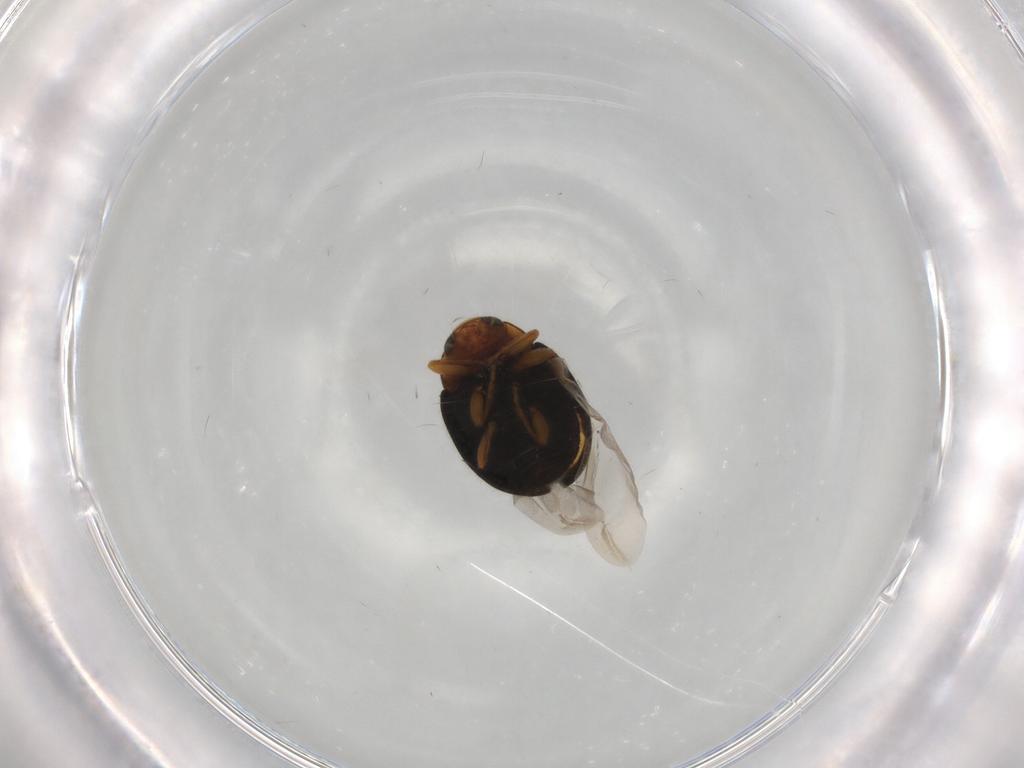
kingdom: Animalia
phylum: Arthropoda
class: Insecta
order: Coleoptera
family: Coccinellidae
